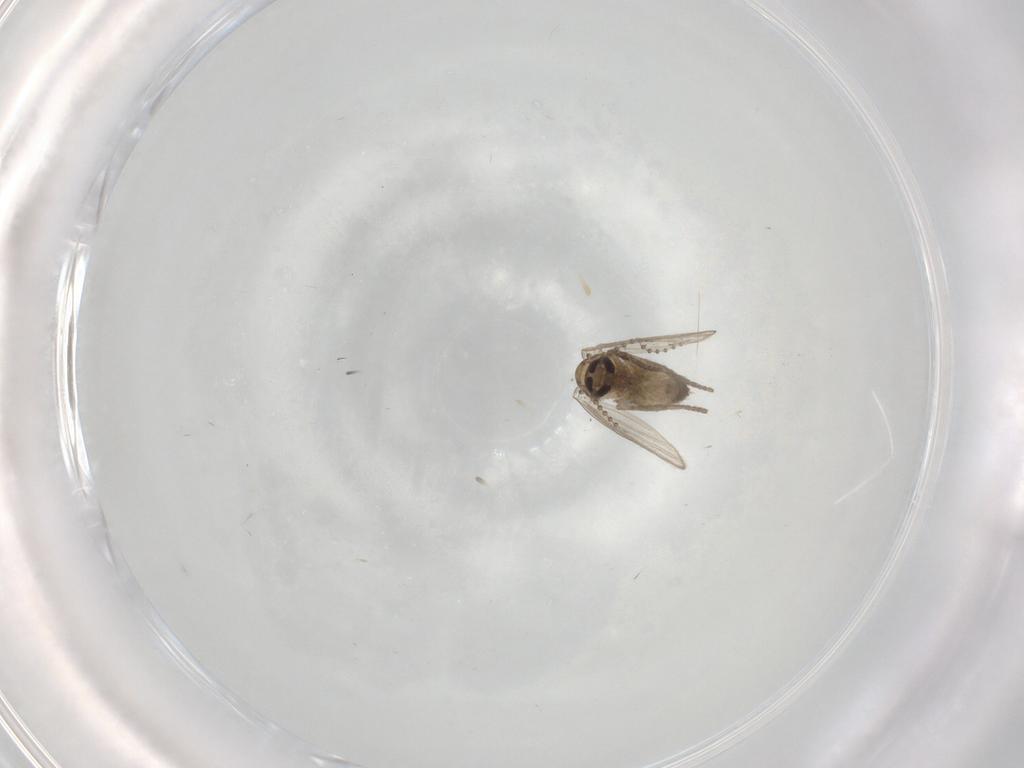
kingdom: Animalia
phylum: Arthropoda
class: Insecta
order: Diptera
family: Psychodidae
